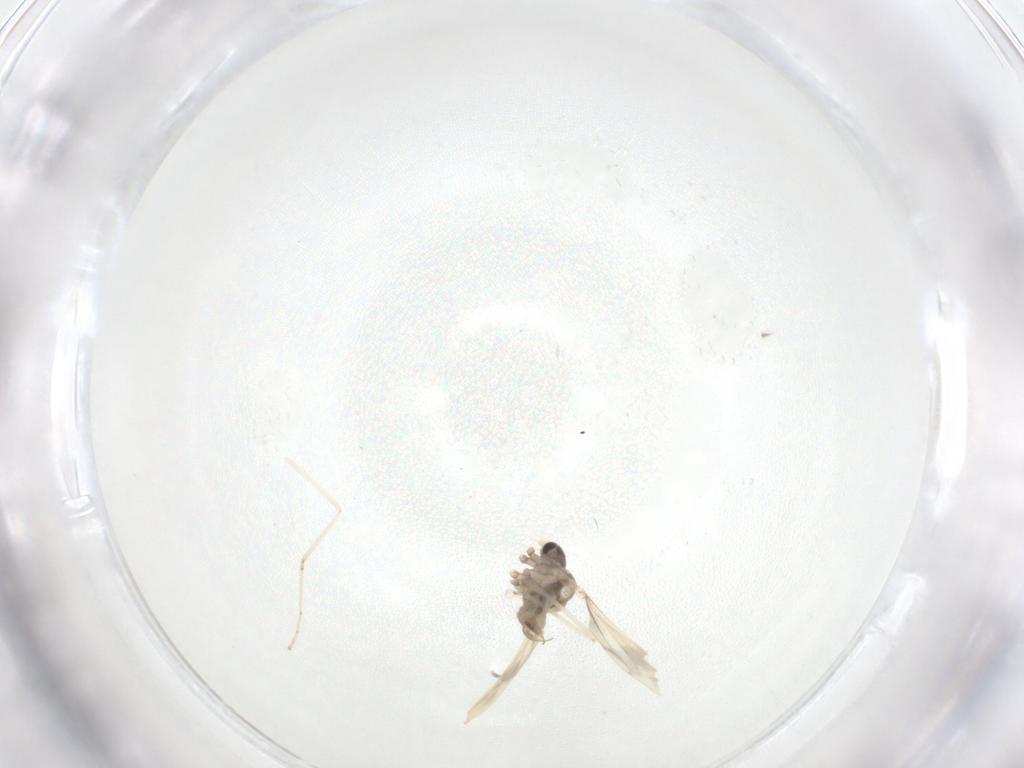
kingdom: Animalia
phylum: Arthropoda
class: Insecta
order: Diptera
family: Cecidomyiidae
